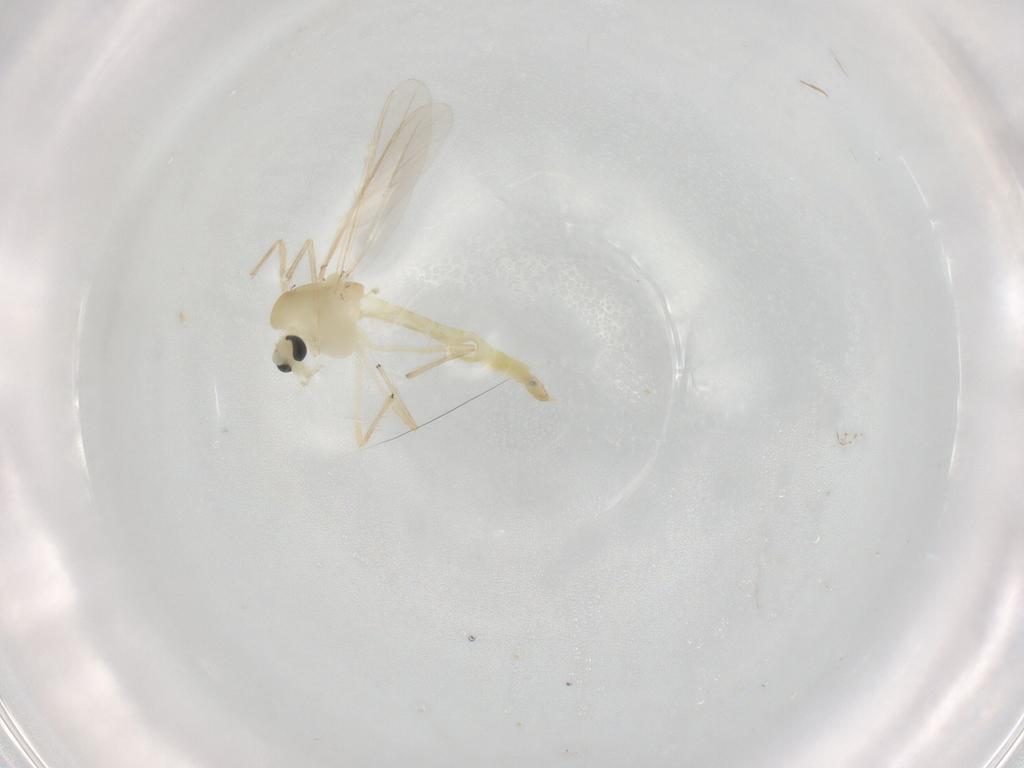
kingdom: Animalia
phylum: Arthropoda
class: Insecta
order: Diptera
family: Chironomidae
